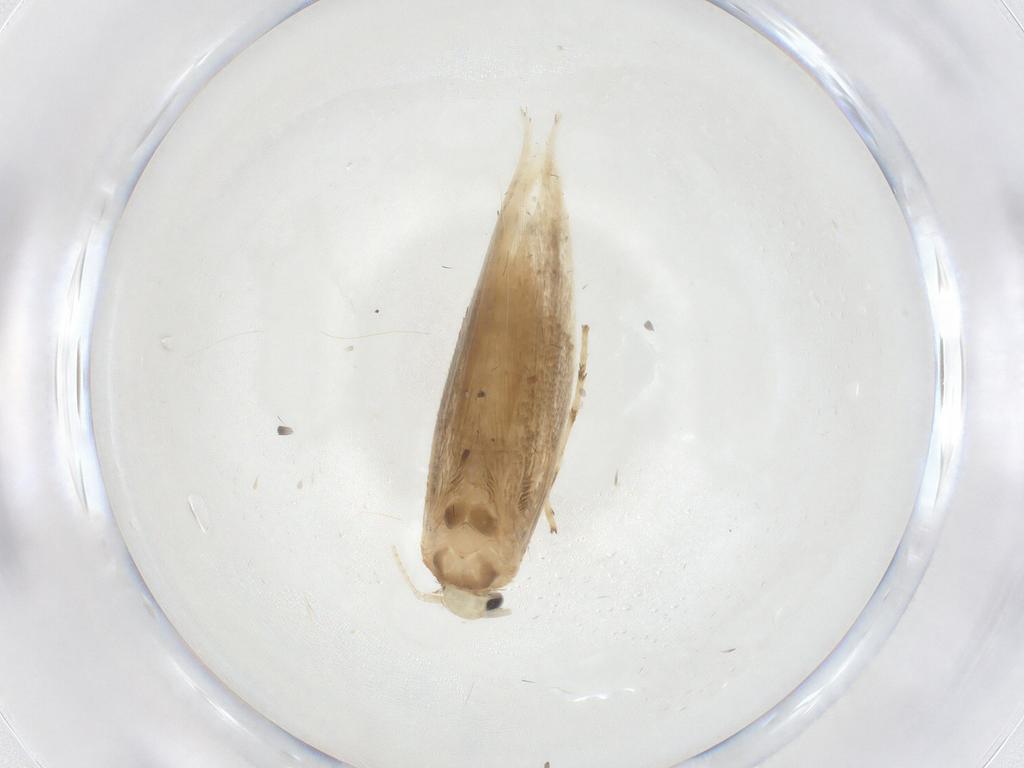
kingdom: Animalia
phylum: Arthropoda
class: Insecta
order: Lepidoptera
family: Gracillariidae
